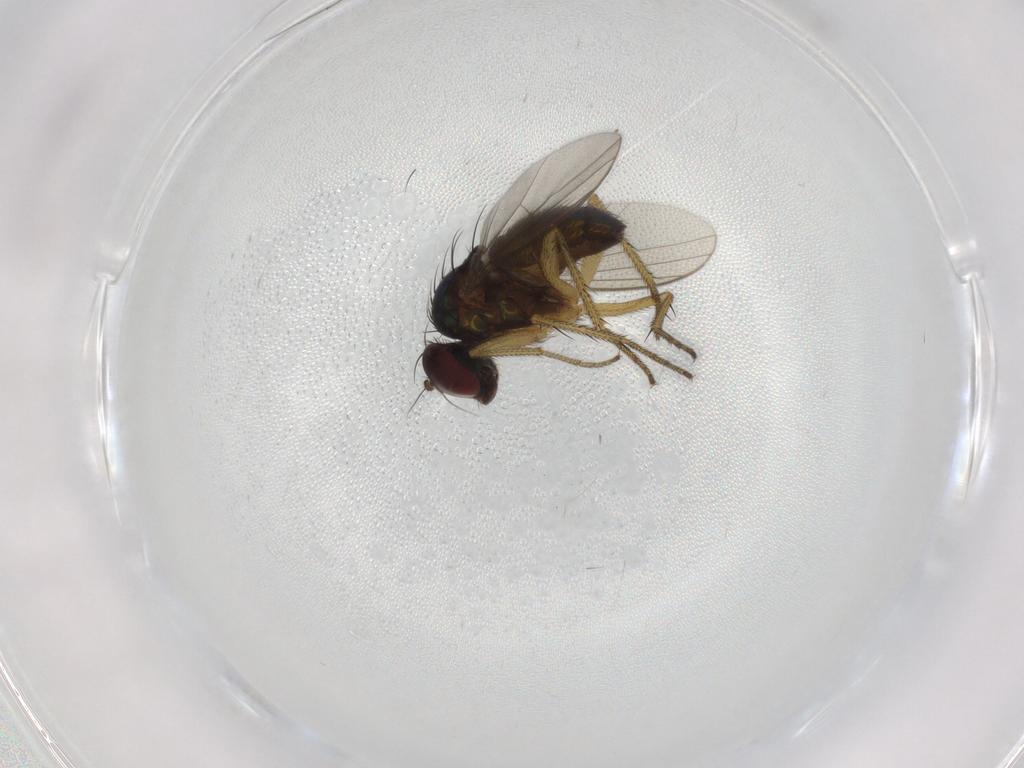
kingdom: Animalia
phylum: Arthropoda
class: Insecta
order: Diptera
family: Dolichopodidae
